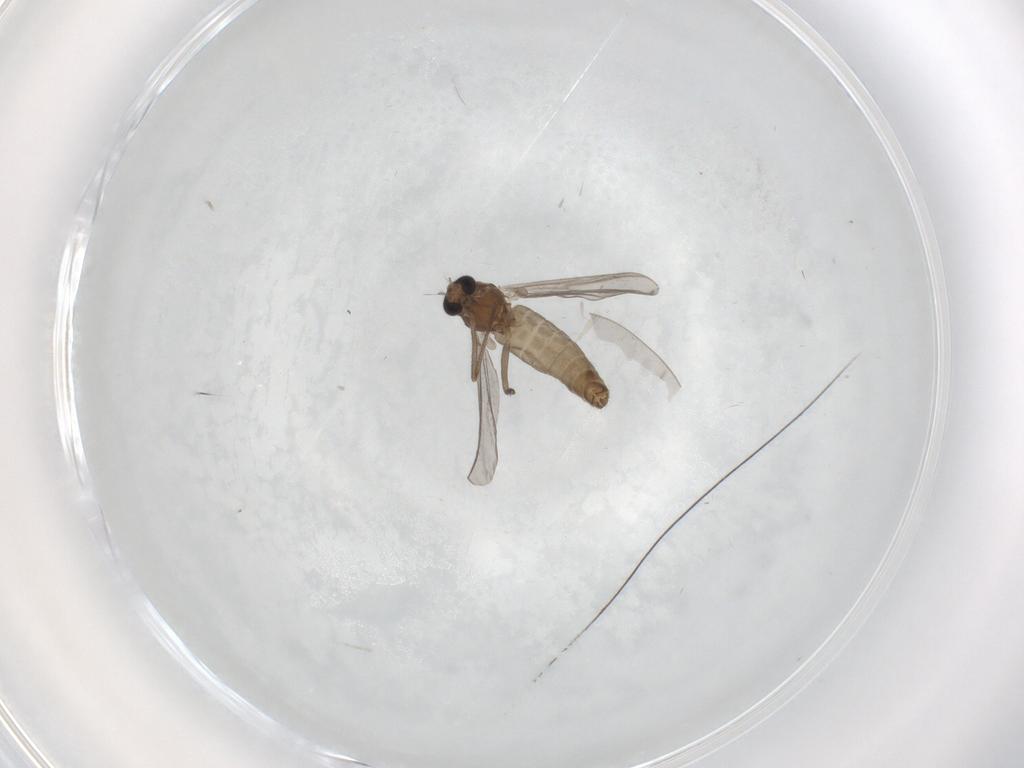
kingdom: Animalia
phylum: Arthropoda
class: Insecta
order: Diptera
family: Chironomidae
